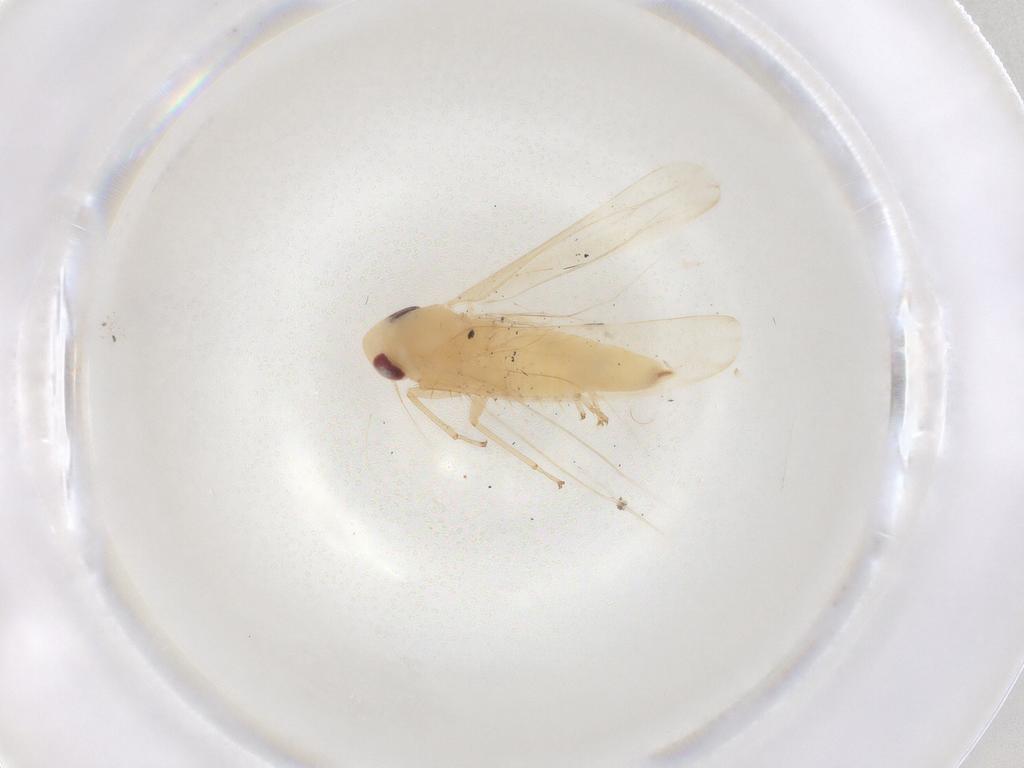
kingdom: Animalia
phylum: Arthropoda
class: Insecta
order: Hemiptera
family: Cicadellidae
